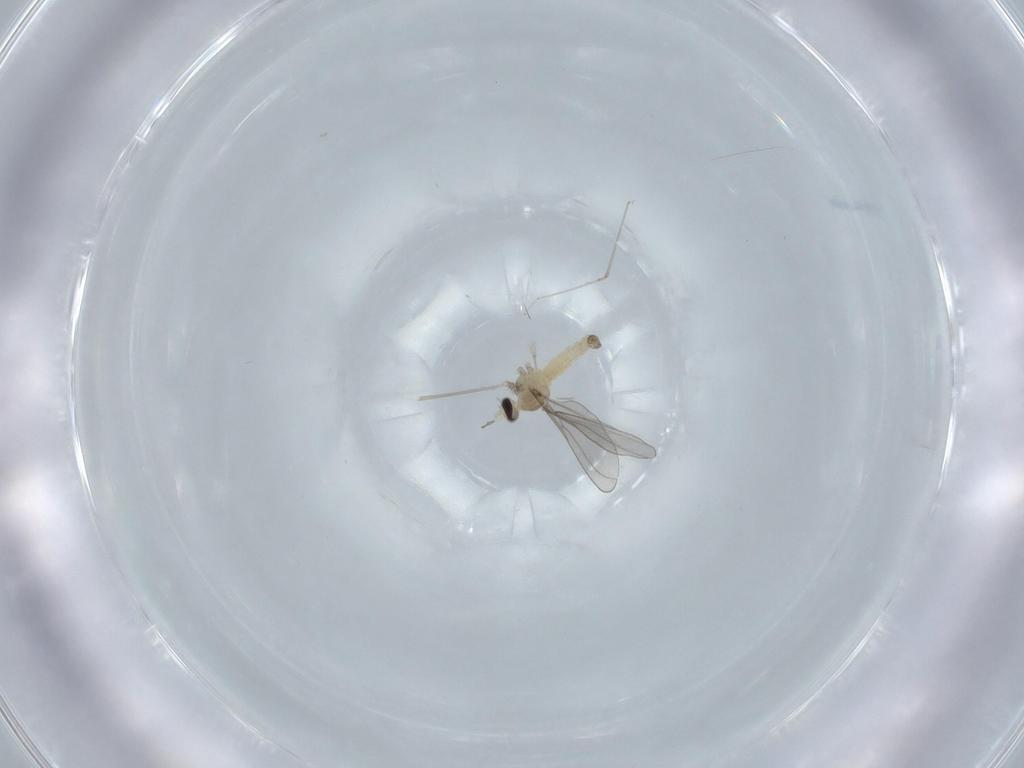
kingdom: Animalia
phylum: Arthropoda
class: Insecta
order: Diptera
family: Cecidomyiidae
